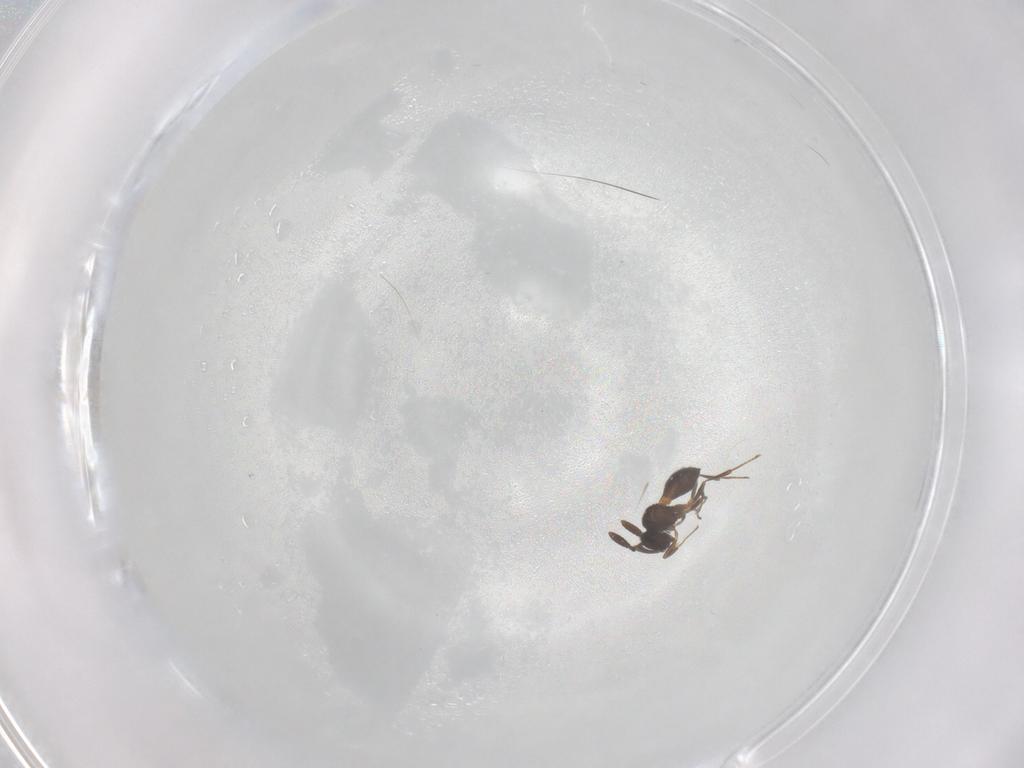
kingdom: Animalia
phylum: Arthropoda
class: Insecta
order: Hymenoptera
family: Scelionidae
